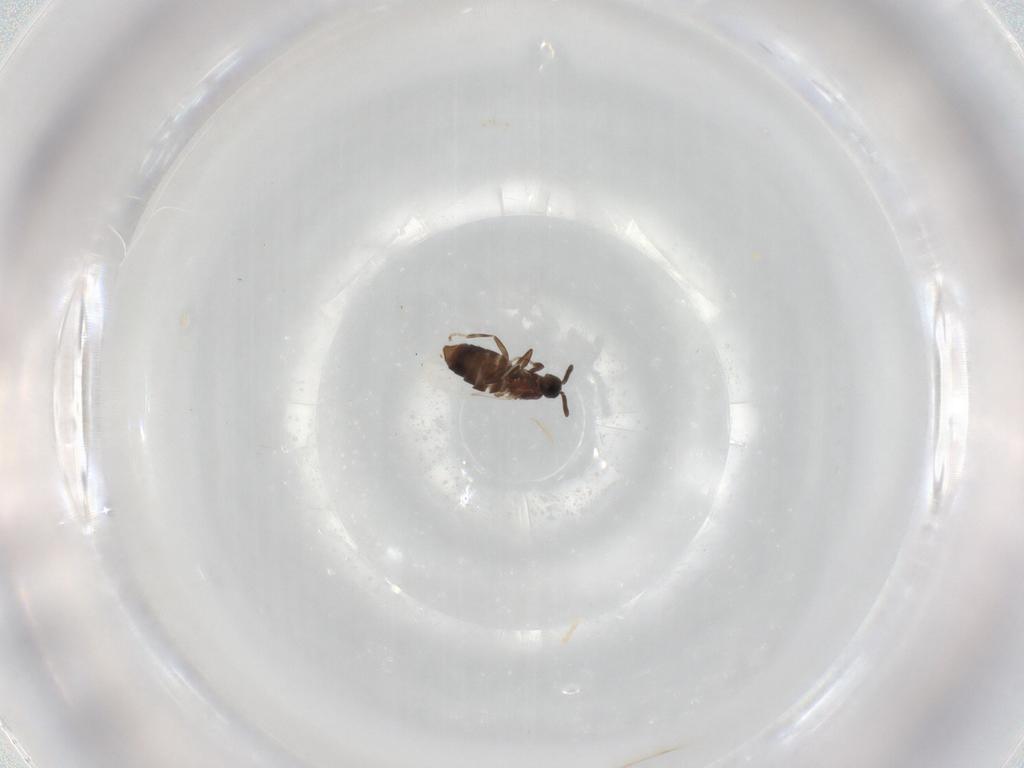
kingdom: Animalia
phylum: Arthropoda
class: Insecta
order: Diptera
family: Scatopsidae
